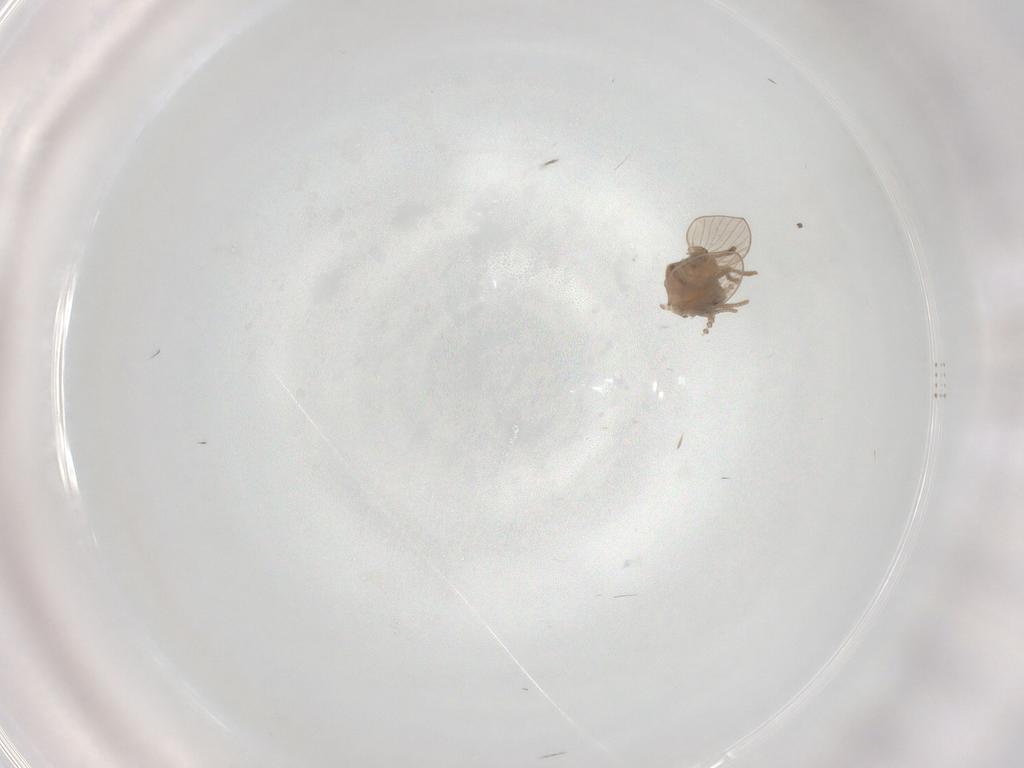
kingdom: Animalia
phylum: Arthropoda
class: Insecta
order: Diptera
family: Psychodidae
